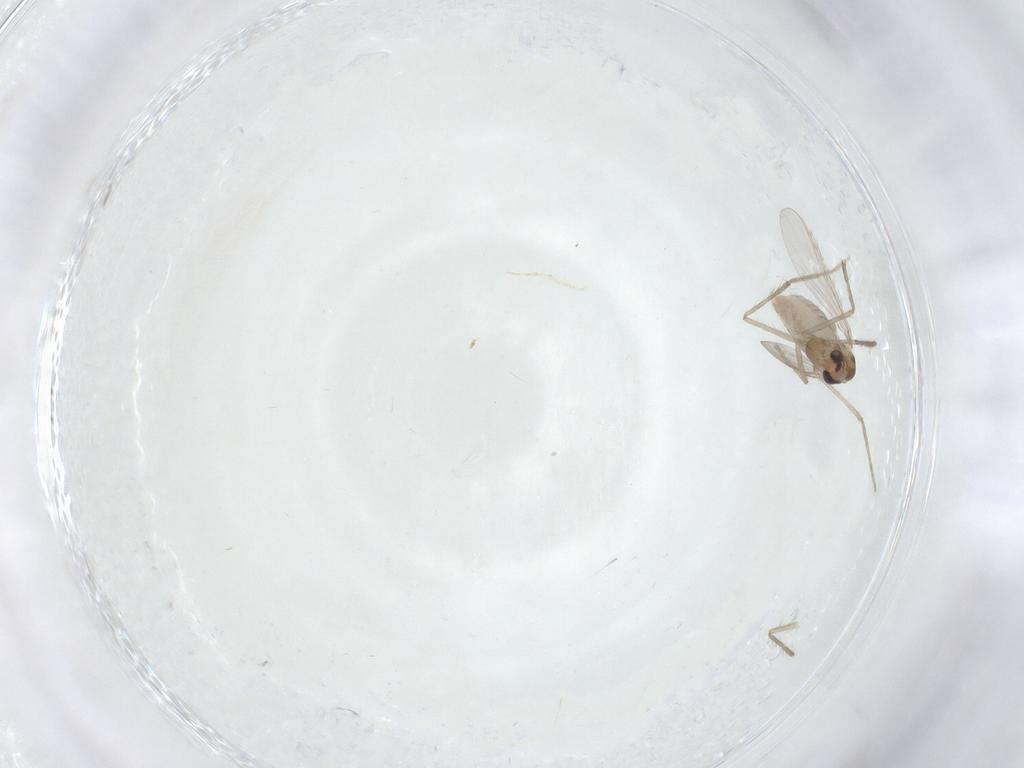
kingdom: Animalia
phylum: Arthropoda
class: Insecta
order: Diptera
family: Chironomidae
